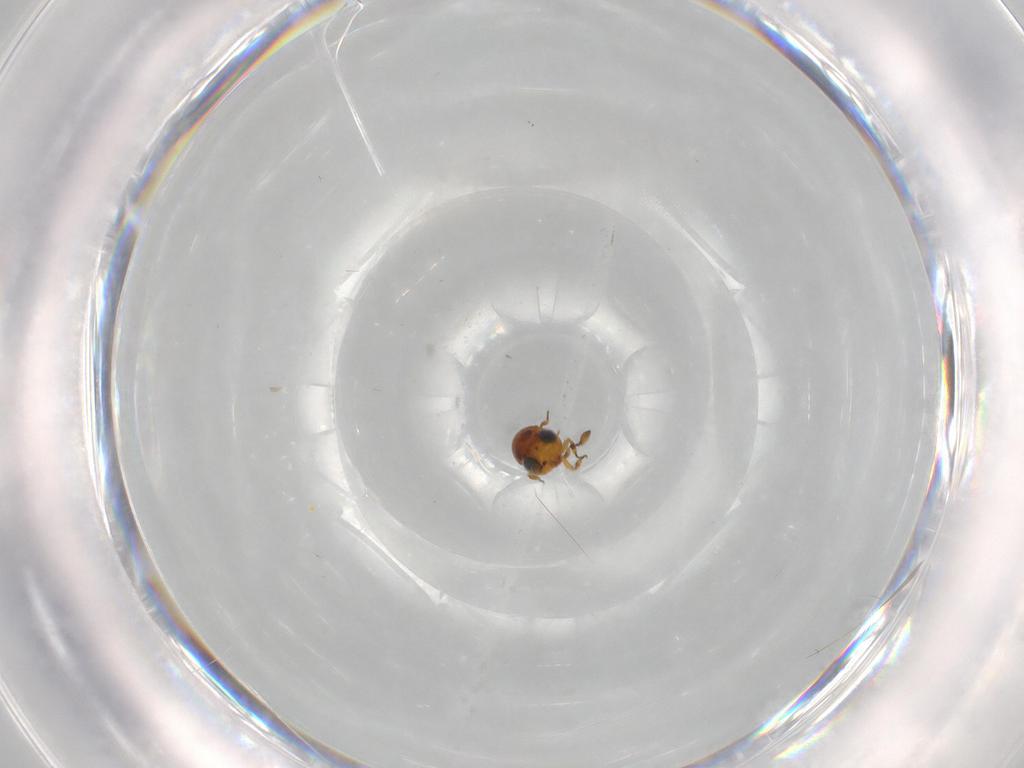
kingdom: Animalia
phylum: Arthropoda
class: Insecta
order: Hymenoptera
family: Scelionidae
